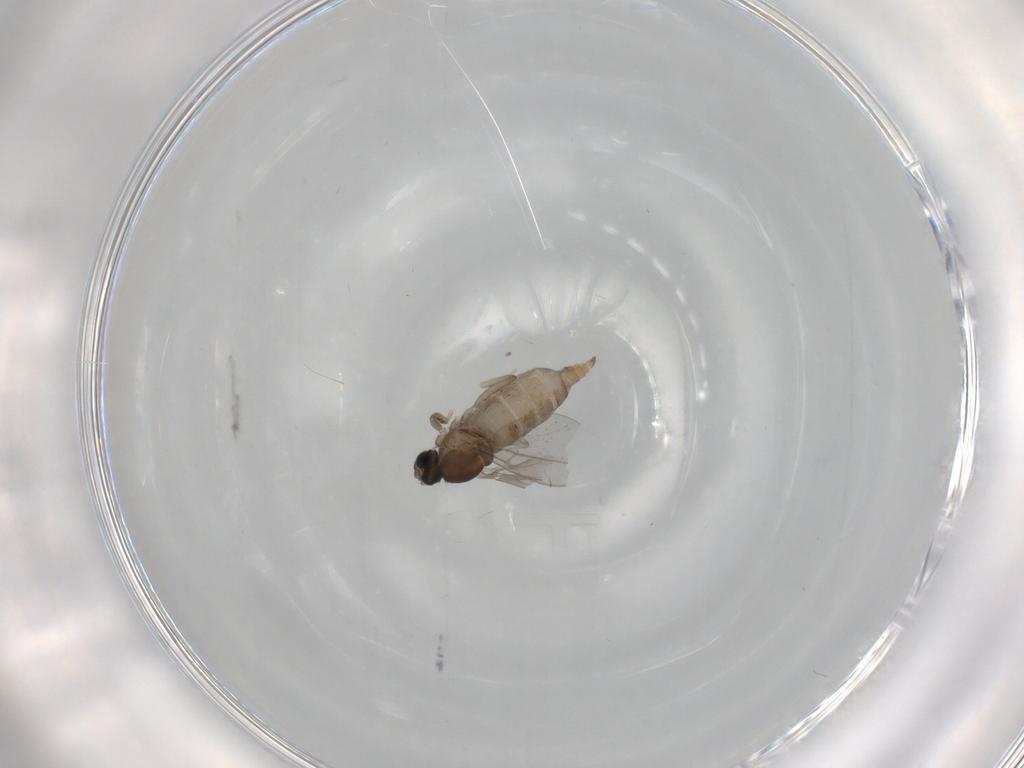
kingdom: Animalia
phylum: Arthropoda
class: Insecta
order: Diptera
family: Cecidomyiidae
